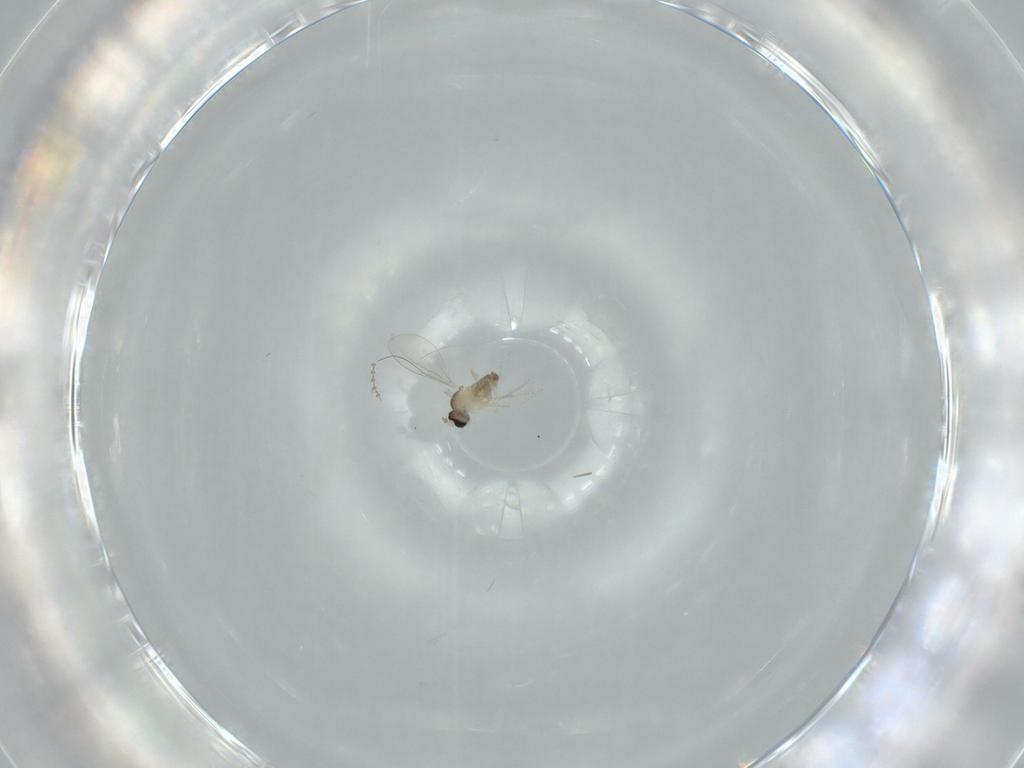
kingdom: Animalia
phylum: Arthropoda
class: Insecta
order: Diptera
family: Cecidomyiidae
